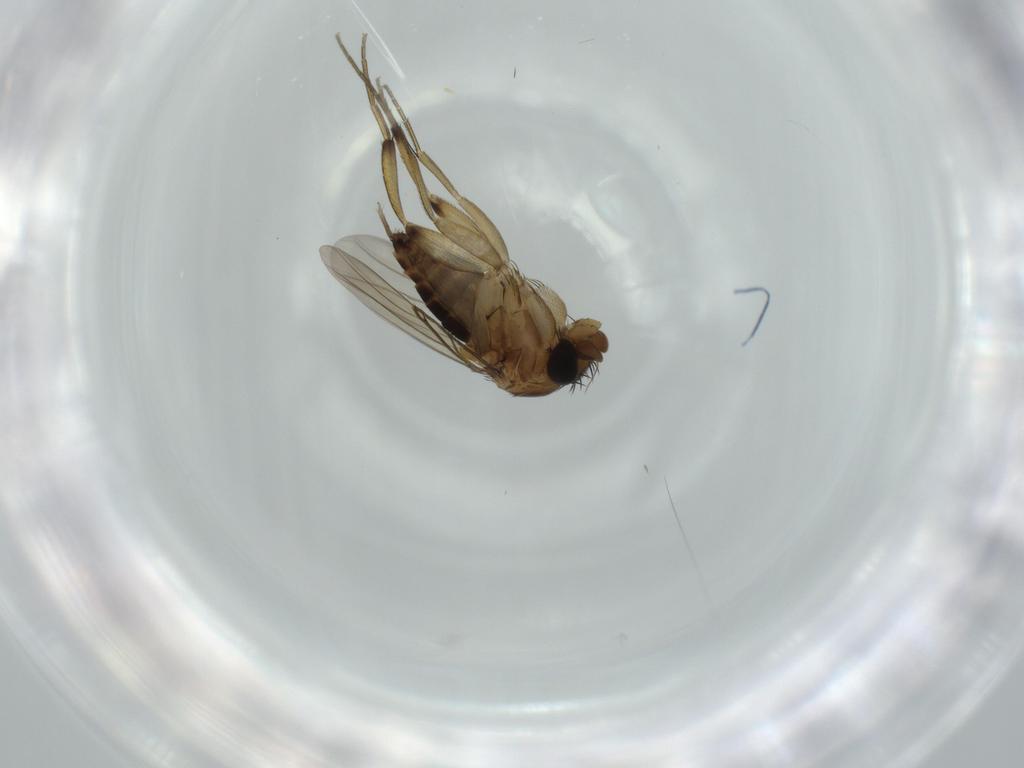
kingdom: Animalia
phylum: Arthropoda
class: Insecta
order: Diptera
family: Phoridae
